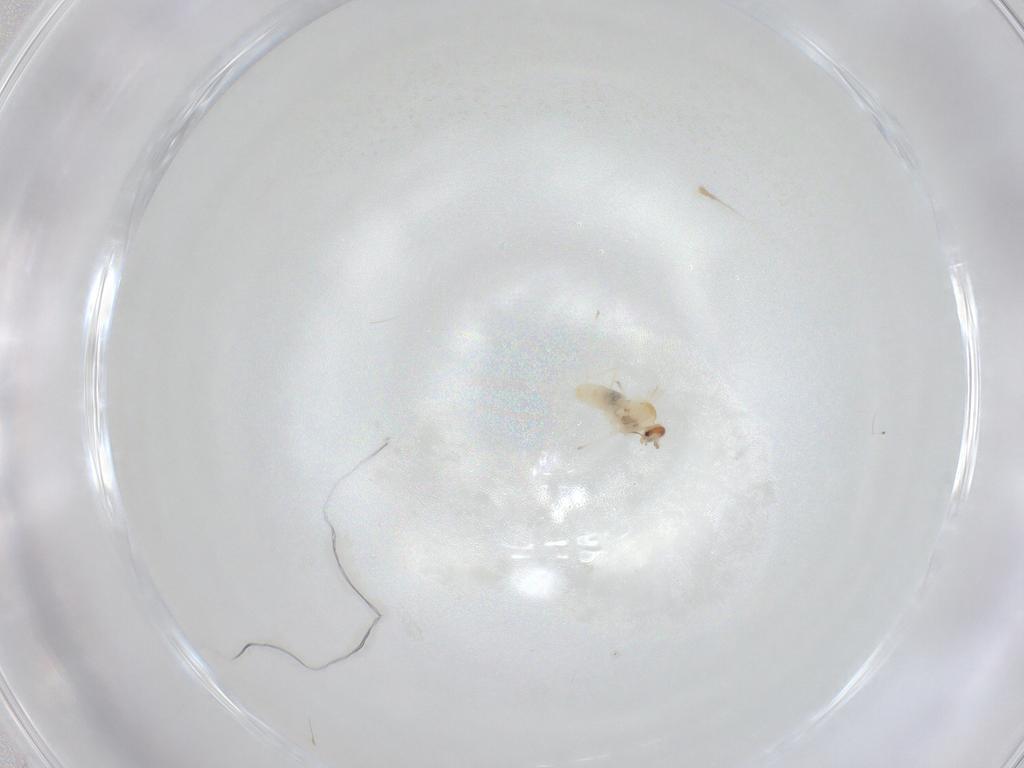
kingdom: Animalia
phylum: Arthropoda
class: Insecta
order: Diptera
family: Cecidomyiidae
